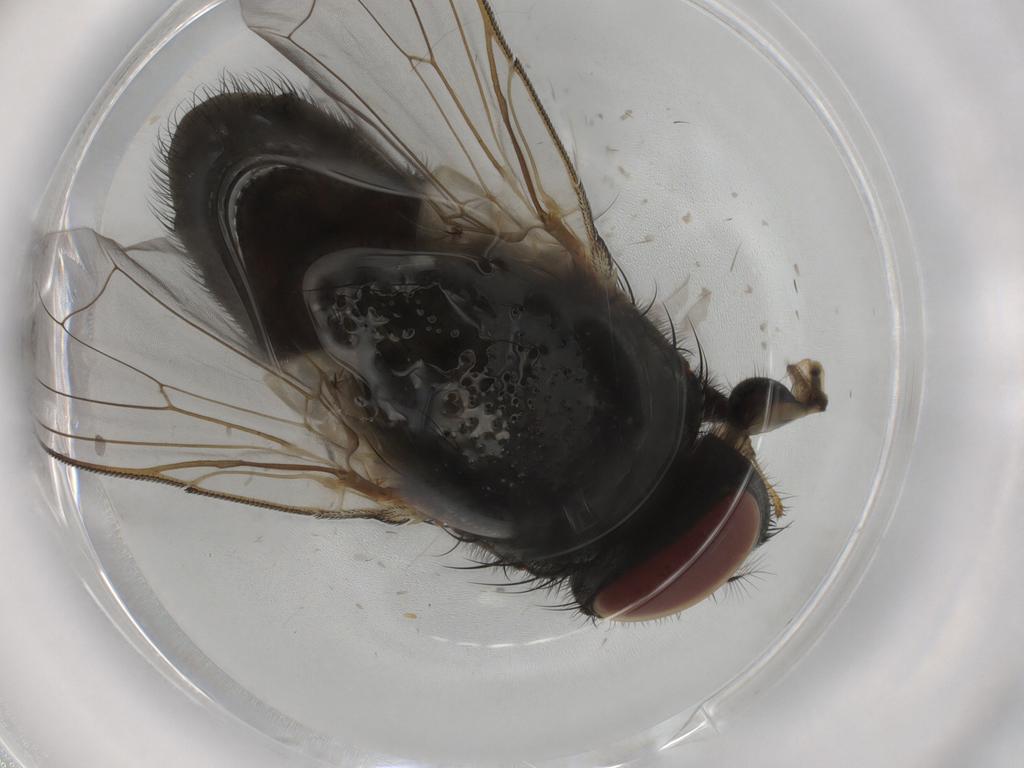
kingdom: Animalia
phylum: Arthropoda
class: Insecta
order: Diptera
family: Ceratopogonidae
